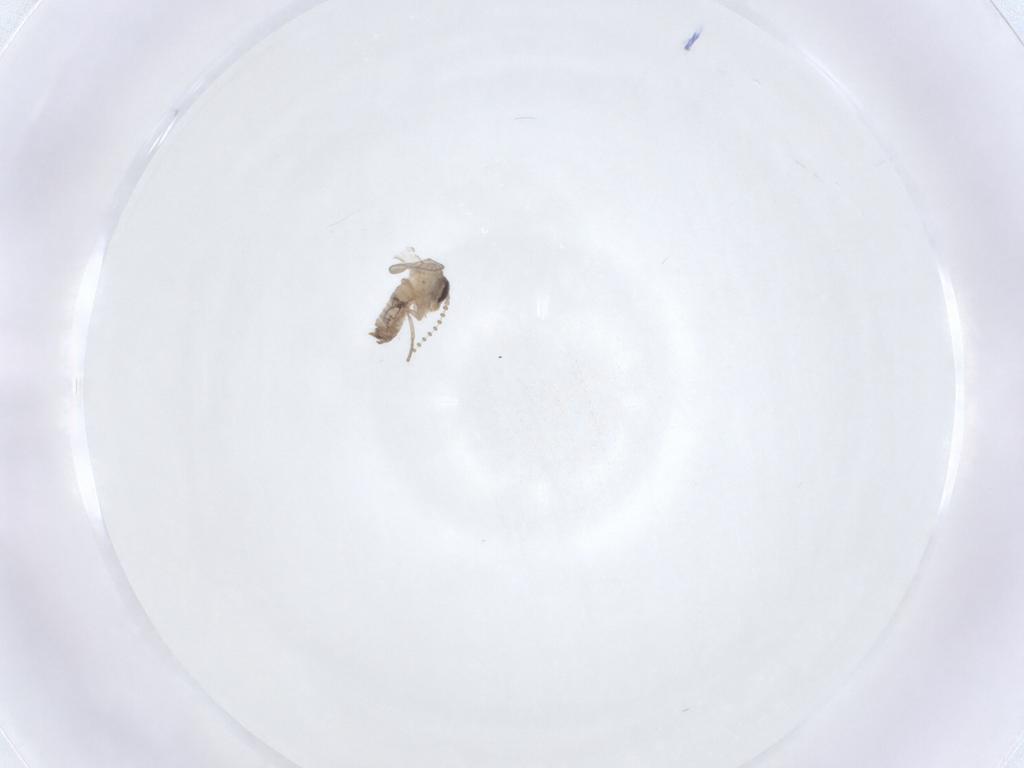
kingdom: Animalia
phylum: Arthropoda
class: Insecta
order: Diptera
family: Psychodidae
